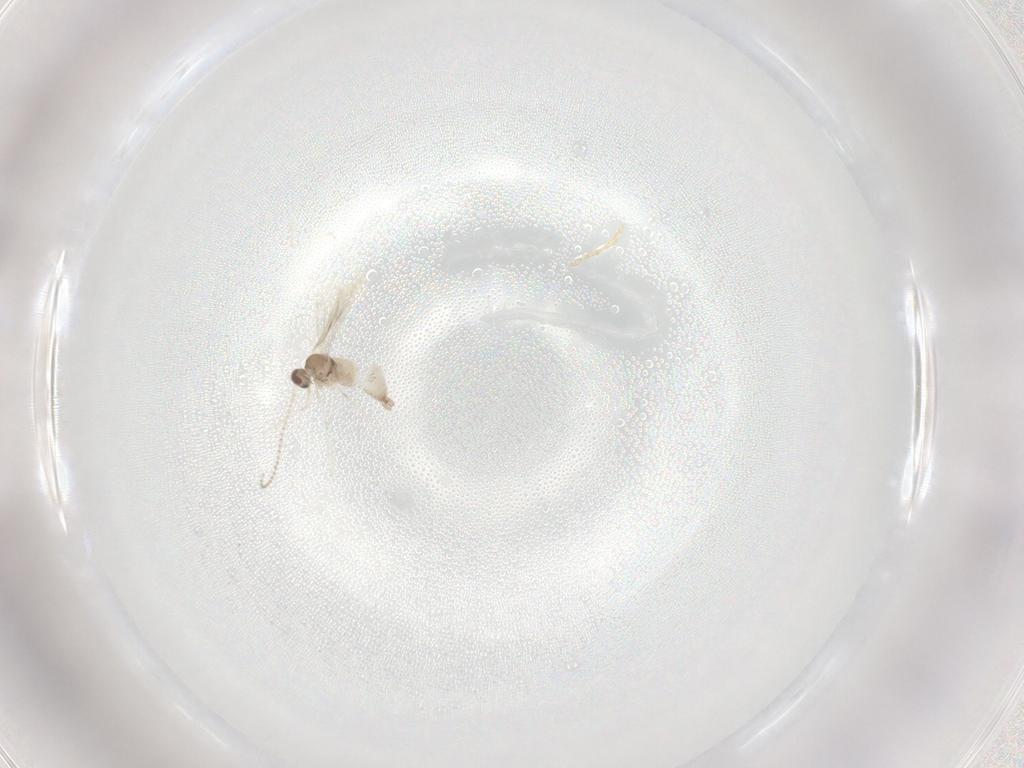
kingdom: Animalia
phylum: Arthropoda
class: Insecta
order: Diptera
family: Cecidomyiidae
